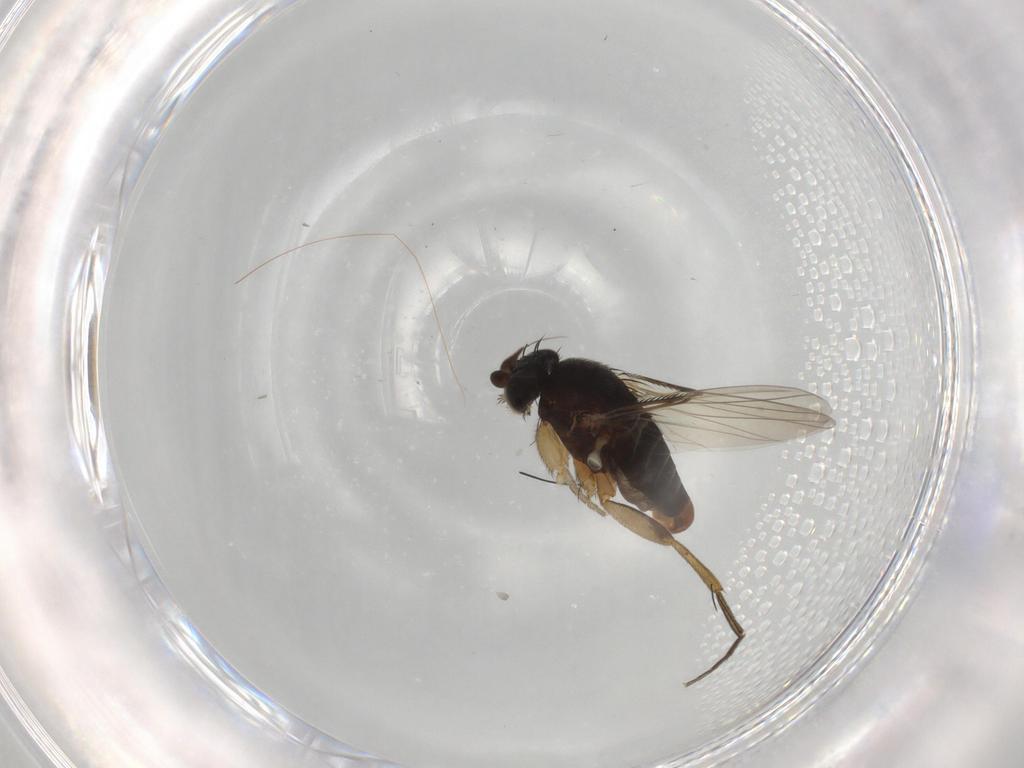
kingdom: Animalia
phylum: Arthropoda
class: Insecta
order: Diptera
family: Phoridae
